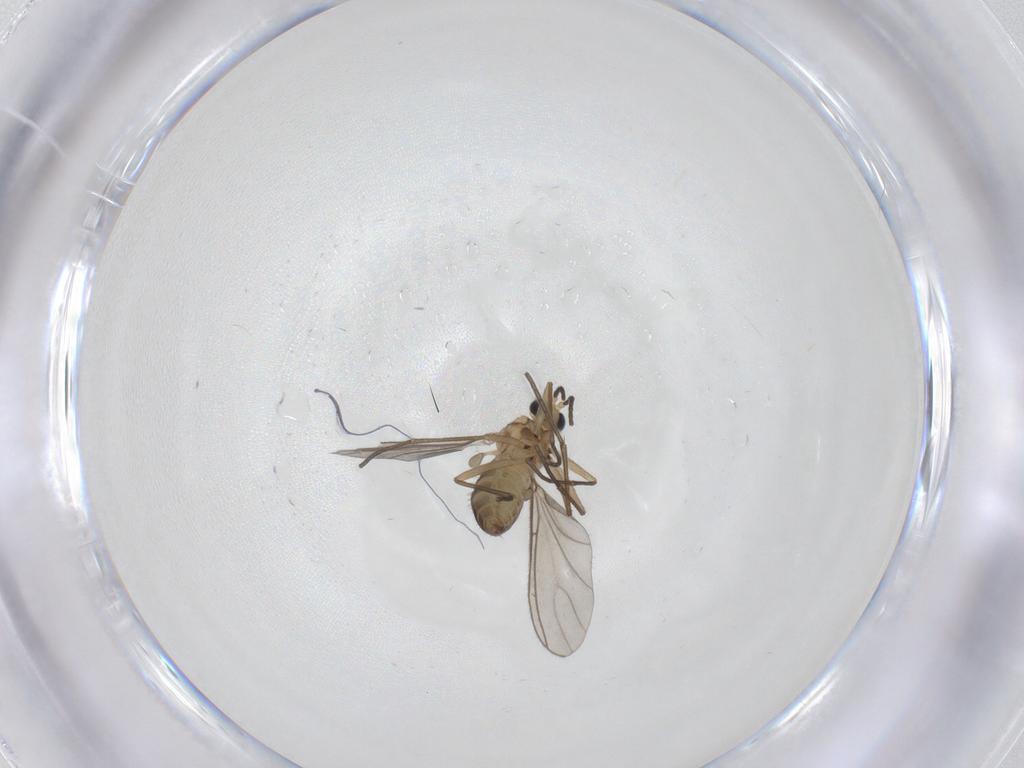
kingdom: Animalia
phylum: Arthropoda
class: Insecta
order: Diptera
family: Sciaridae
